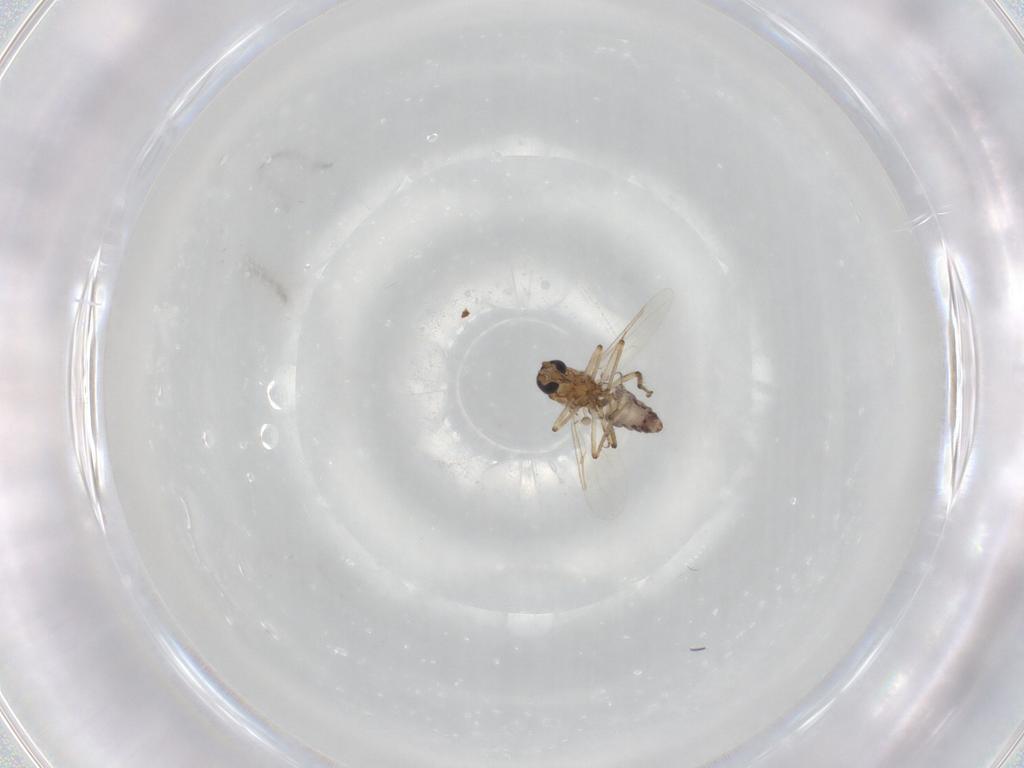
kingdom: Animalia
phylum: Arthropoda
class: Insecta
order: Diptera
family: Ceratopogonidae
